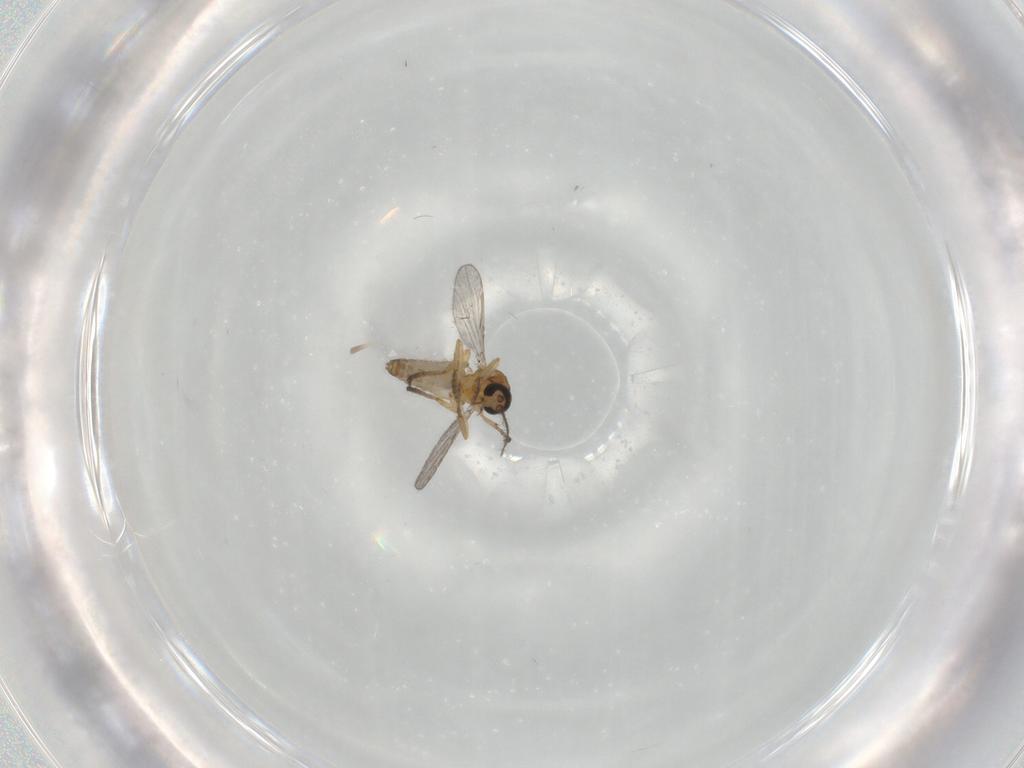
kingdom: Animalia
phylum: Arthropoda
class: Insecta
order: Diptera
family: Ceratopogonidae
